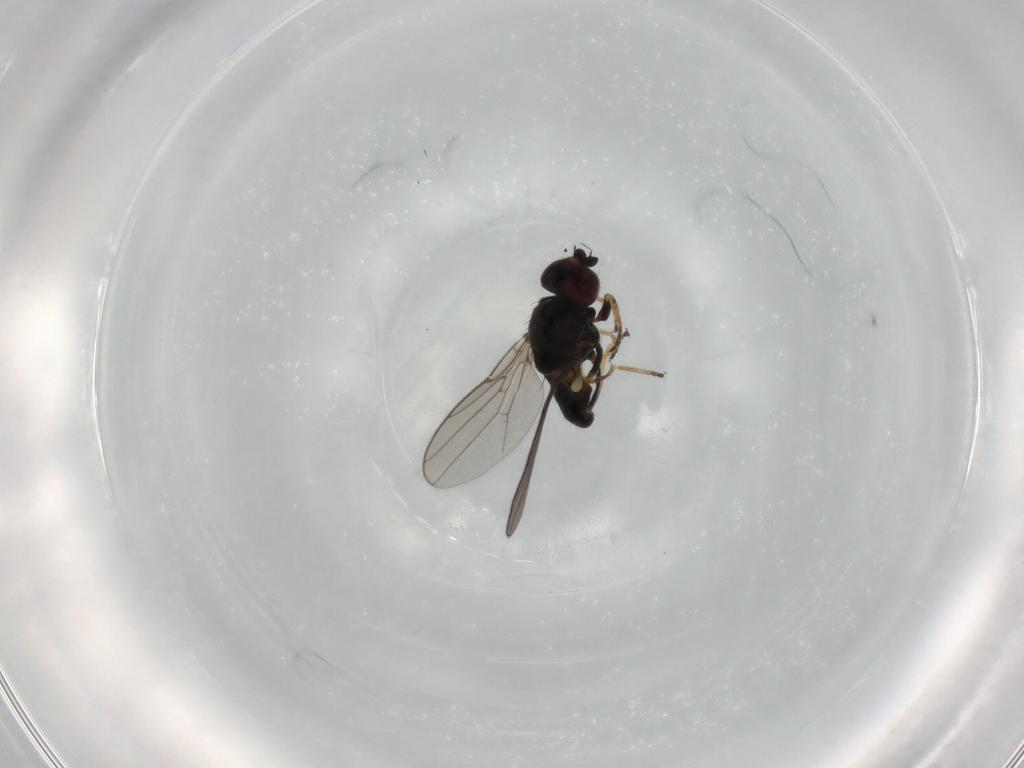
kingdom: Animalia
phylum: Arthropoda
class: Insecta
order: Diptera
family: Chloropidae
